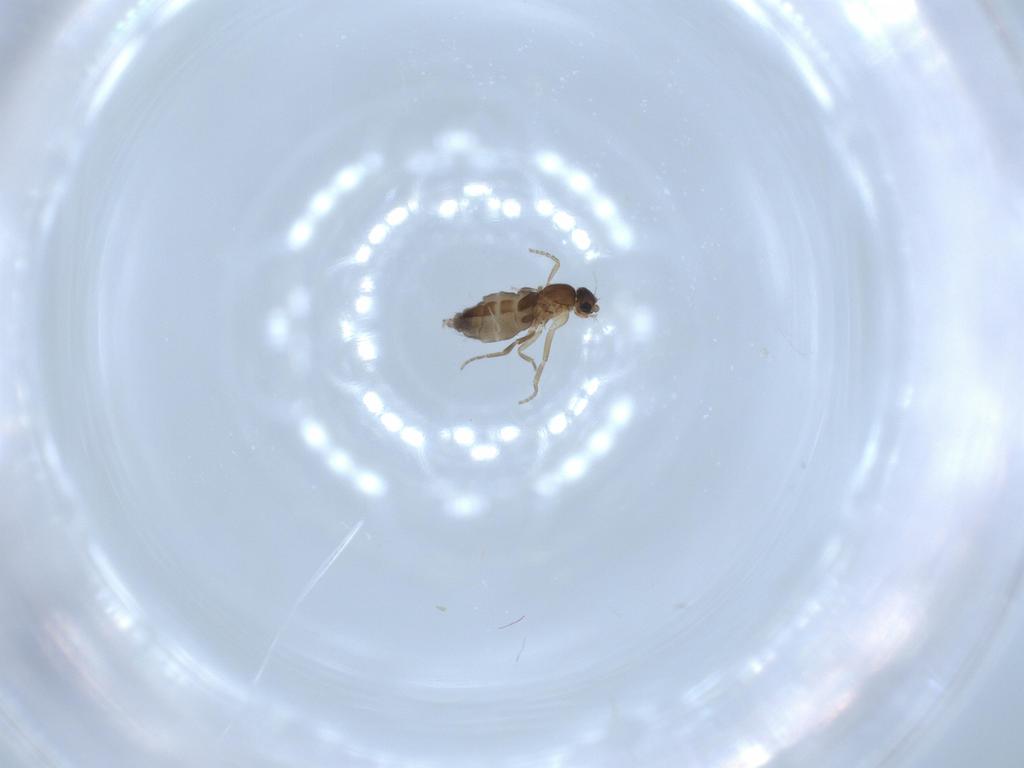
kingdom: Animalia
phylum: Arthropoda
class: Insecta
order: Diptera
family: Phoridae
